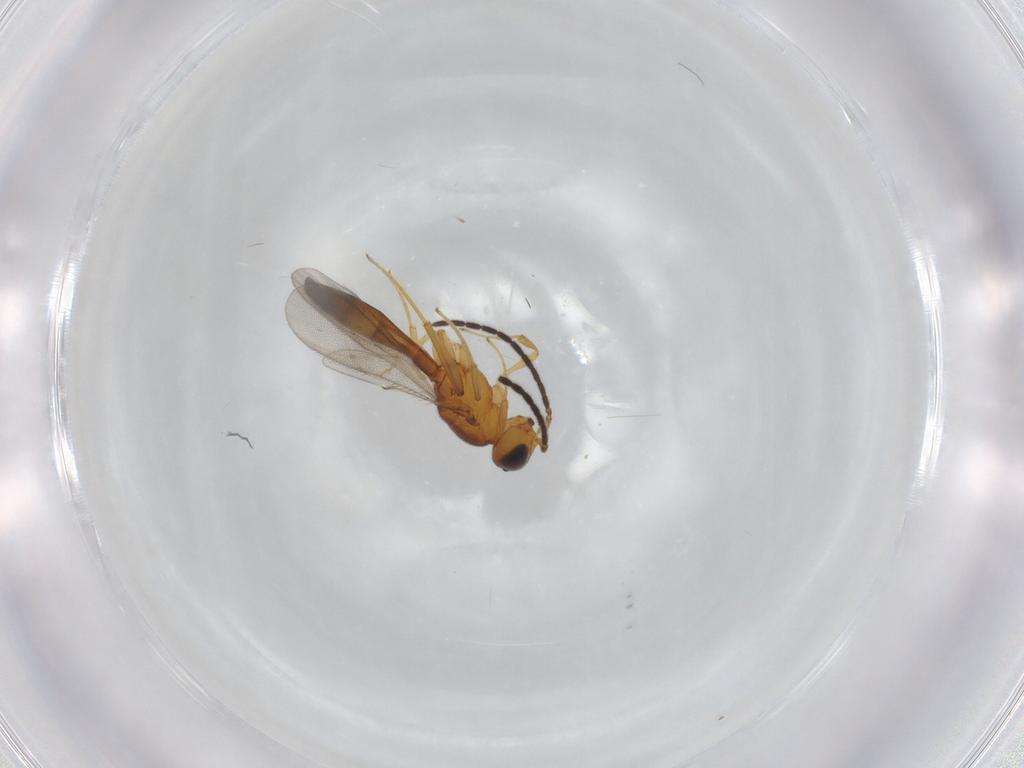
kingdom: Animalia
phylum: Arthropoda
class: Insecta
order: Hymenoptera
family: Scelionidae
